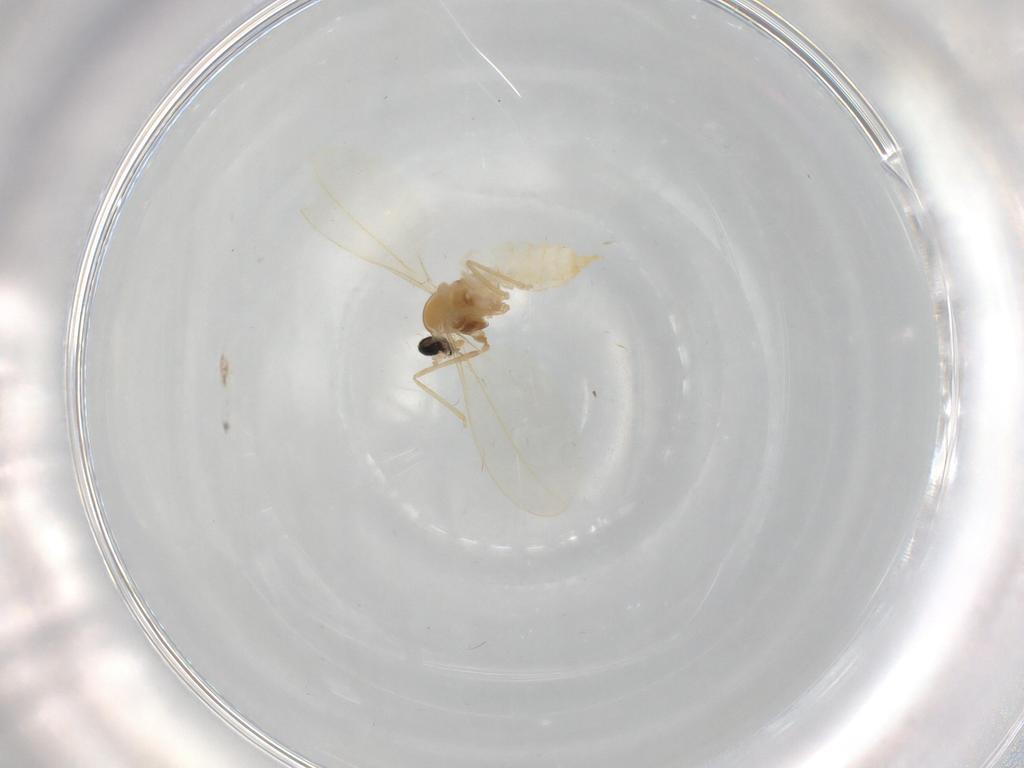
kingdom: Animalia
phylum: Arthropoda
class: Insecta
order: Diptera
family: Cecidomyiidae
